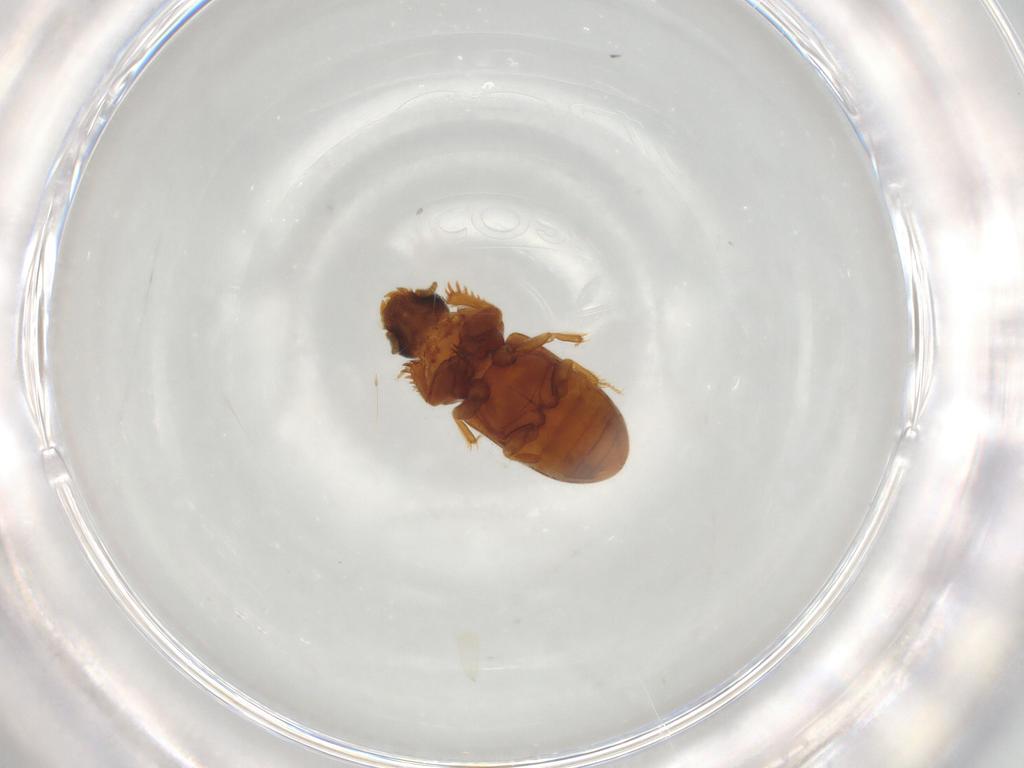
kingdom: Animalia
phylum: Arthropoda
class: Insecta
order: Coleoptera
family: Heteroceridae
